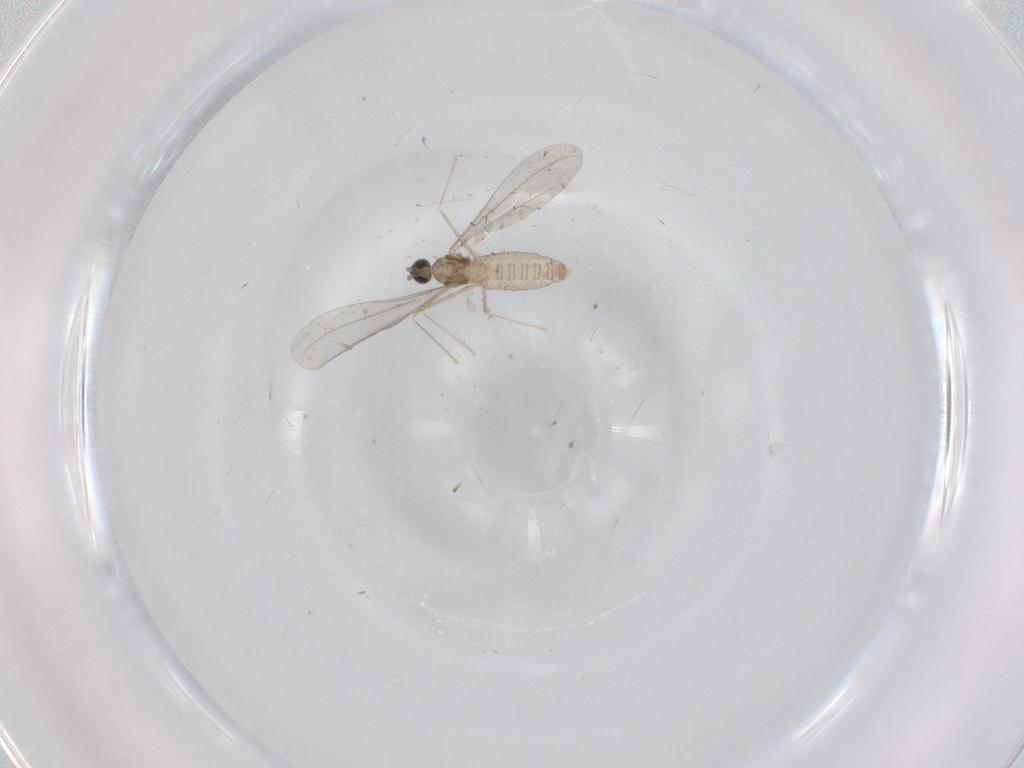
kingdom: Animalia
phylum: Arthropoda
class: Insecta
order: Diptera
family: Cecidomyiidae
